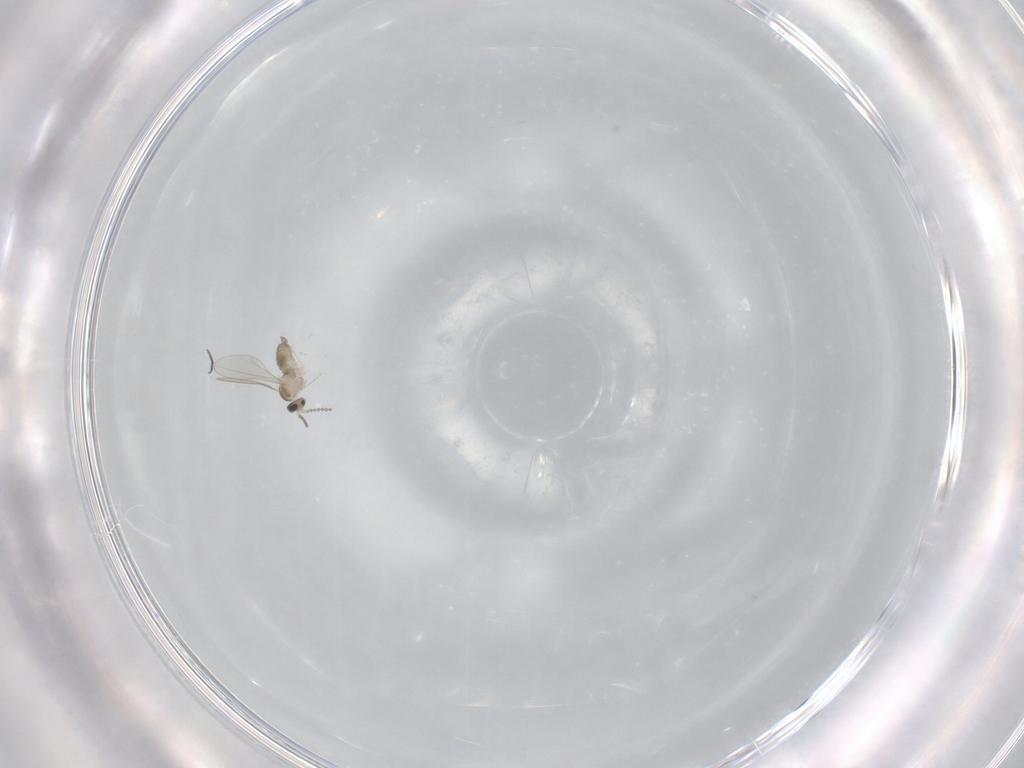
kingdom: Animalia
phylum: Arthropoda
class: Insecta
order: Diptera
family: Cecidomyiidae
